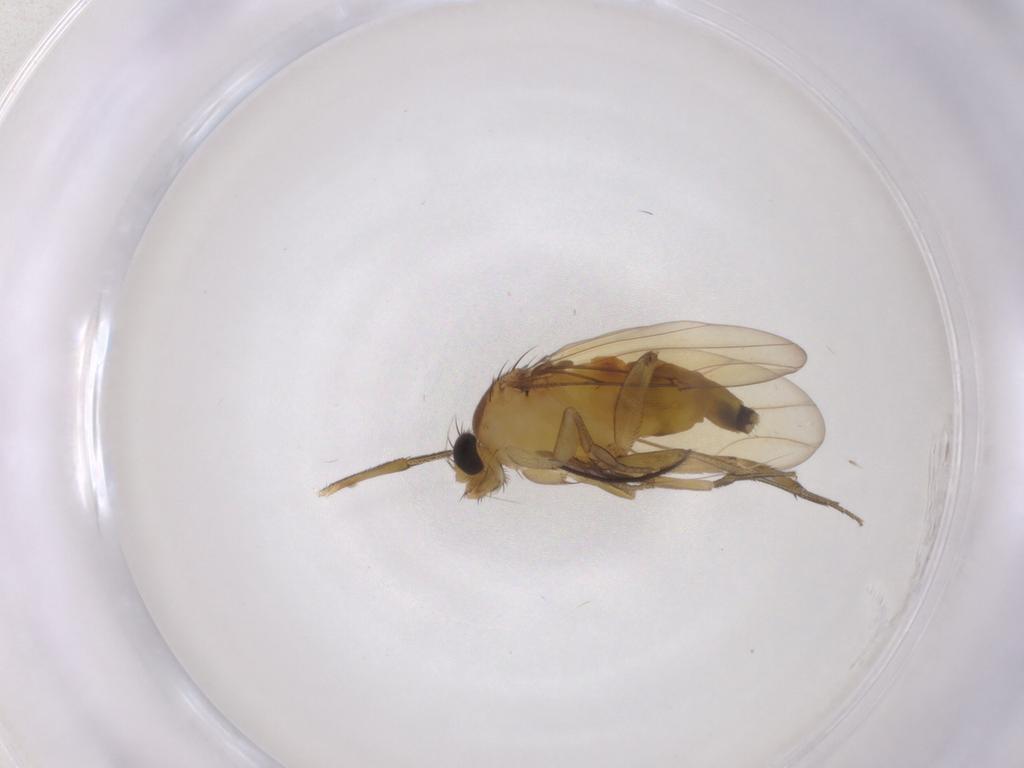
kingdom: Animalia
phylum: Arthropoda
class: Insecta
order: Diptera
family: Phoridae
